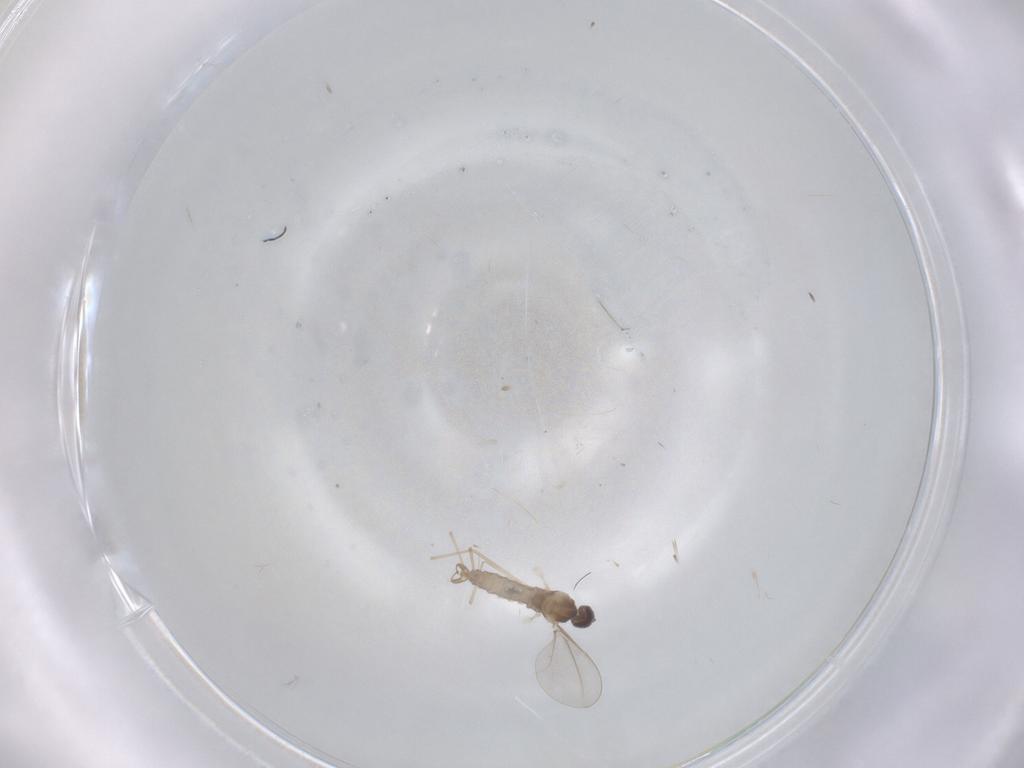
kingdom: Animalia
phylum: Arthropoda
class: Insecta
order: Diptera
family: Cecidomyiidae
